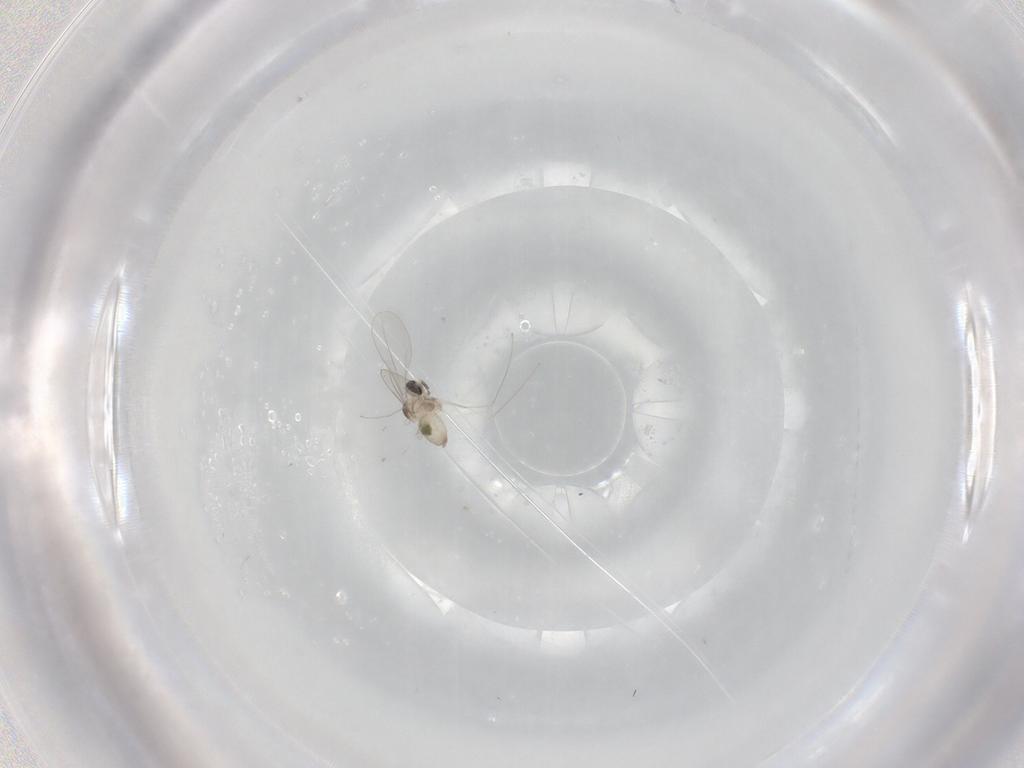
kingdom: Animalia
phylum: Arthropoda
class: Insecta
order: Diptera
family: Cecidomyiidae
